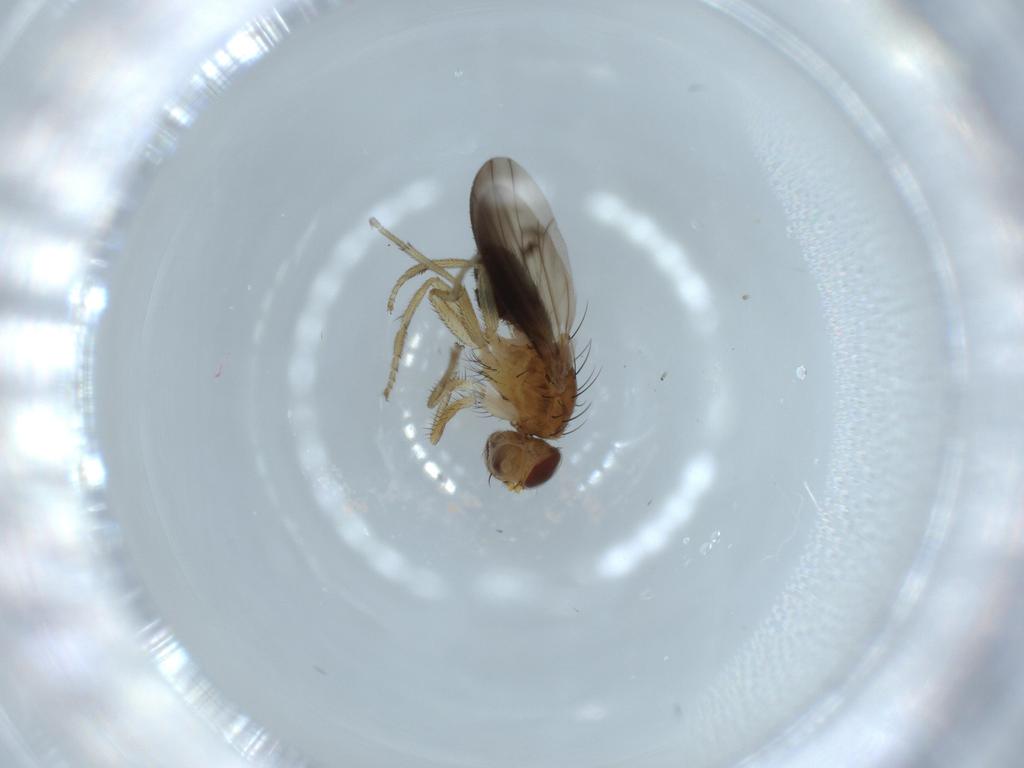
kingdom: Animalia
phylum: Arthropoda
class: Insecta
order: Diptera
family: Heleomyzidae
